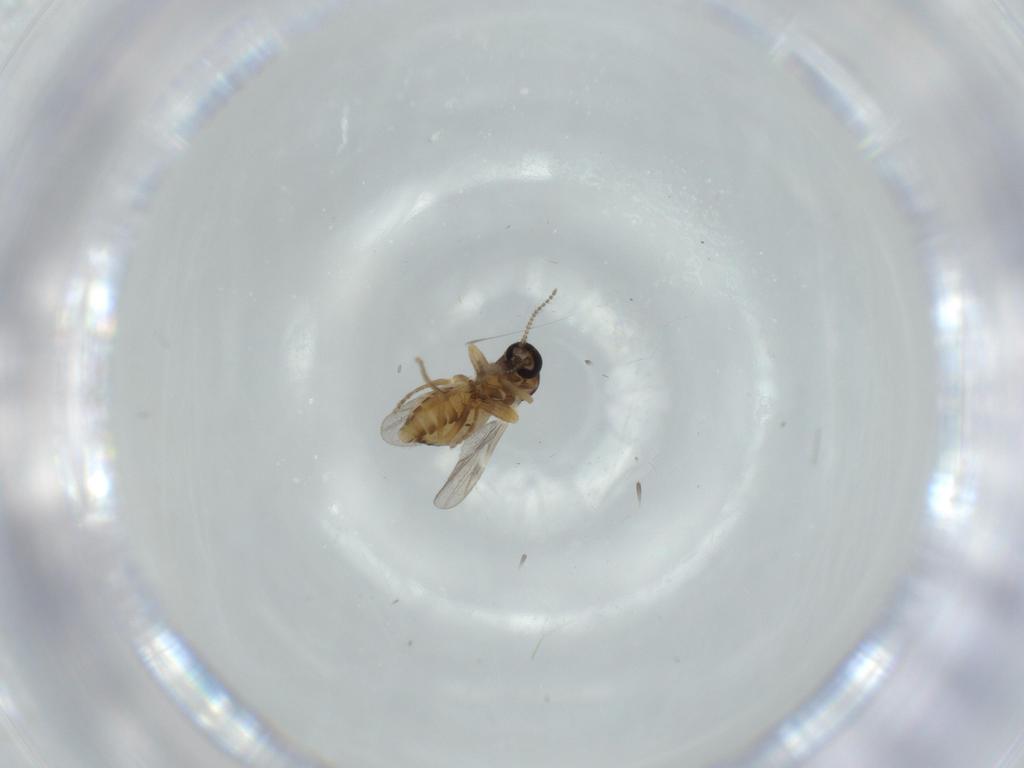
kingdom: Animalia
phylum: Arthropoda
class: Insecta
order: Diptera
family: Ceratopogonidae
